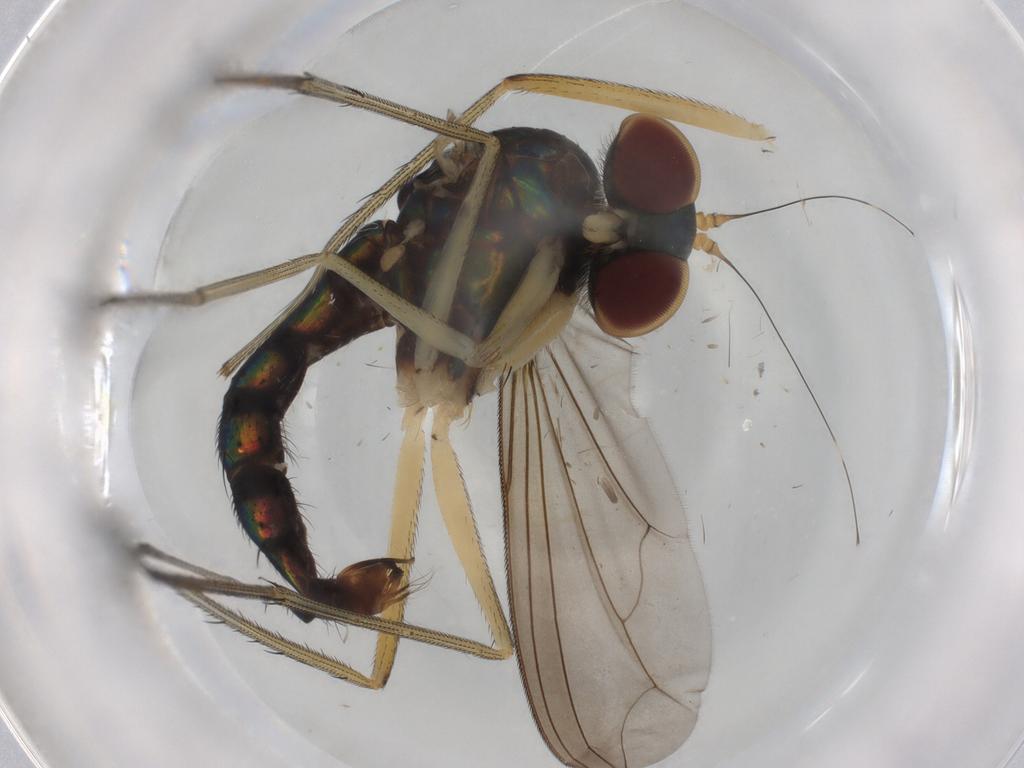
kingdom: Animalia
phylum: Arthropoda
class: Insecta
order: Diptera
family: Dolichopodidae
